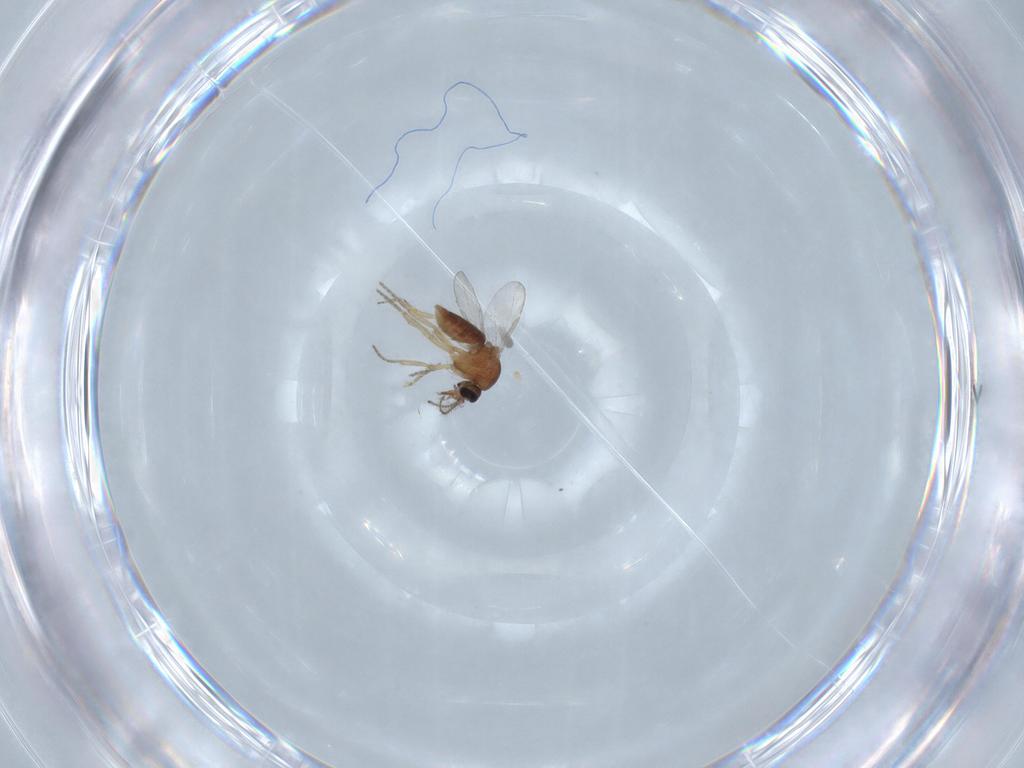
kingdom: Animalia
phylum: Arthropoda
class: Insecta
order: Diptera
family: Ceratopogonidae
